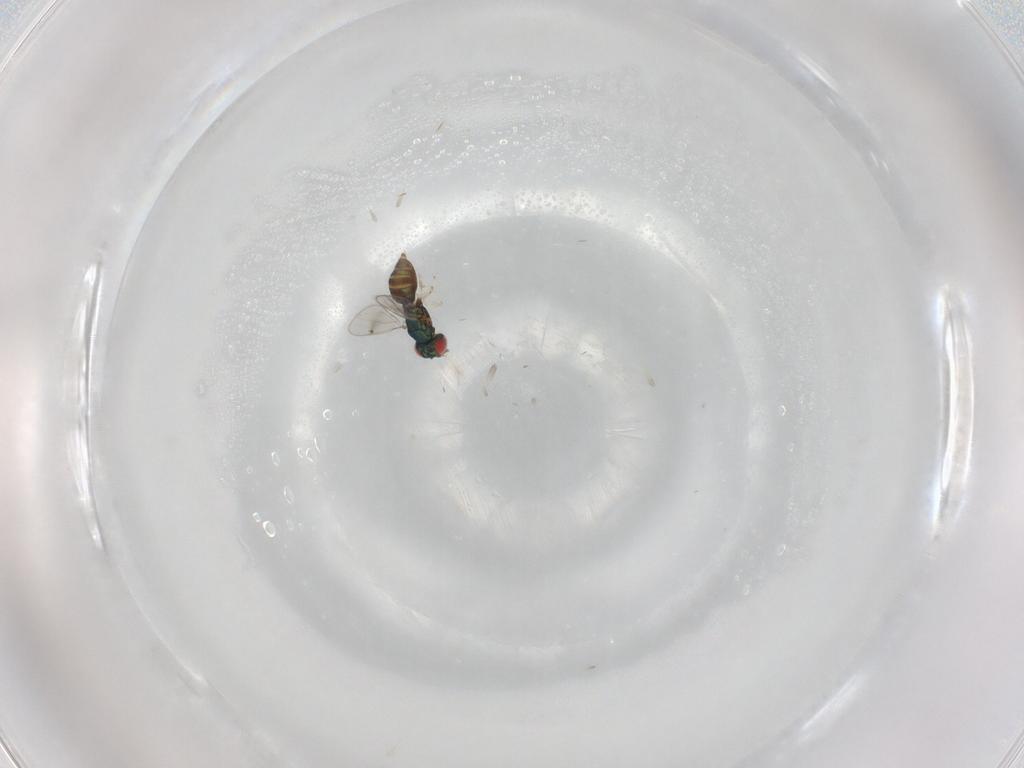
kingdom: Animalia
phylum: Arthropoda
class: Insecta
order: Hymenoptera
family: Eulophidae
